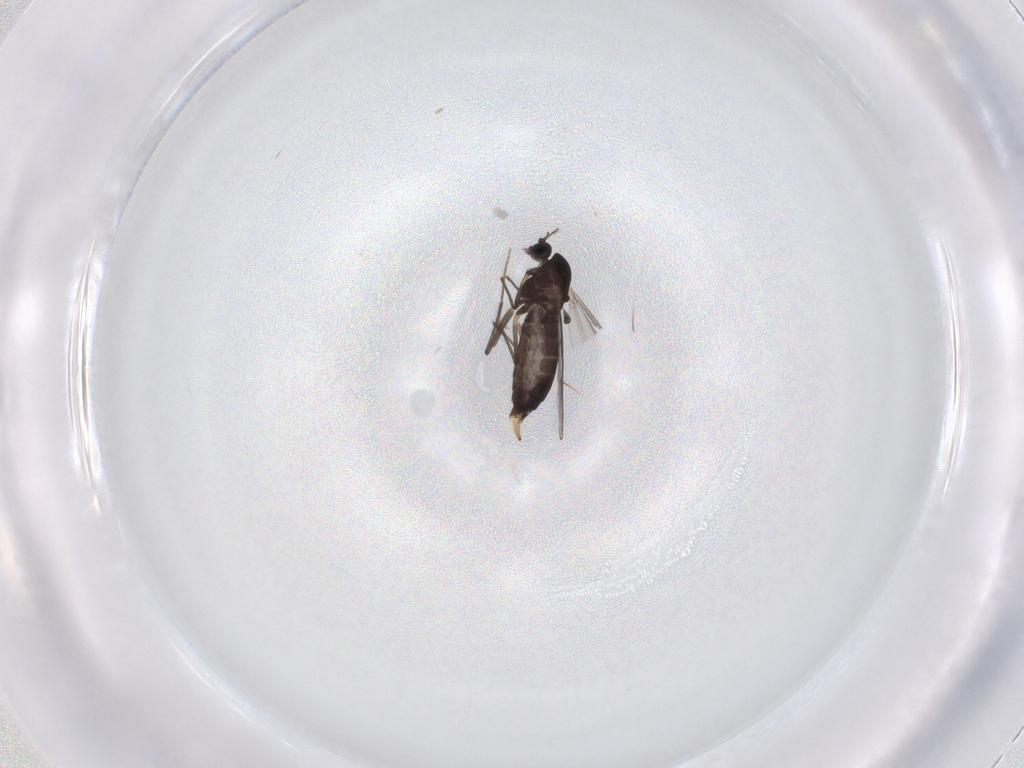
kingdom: Animalia
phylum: Arthropoda
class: Insecta
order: Diptera
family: Chironomidae
